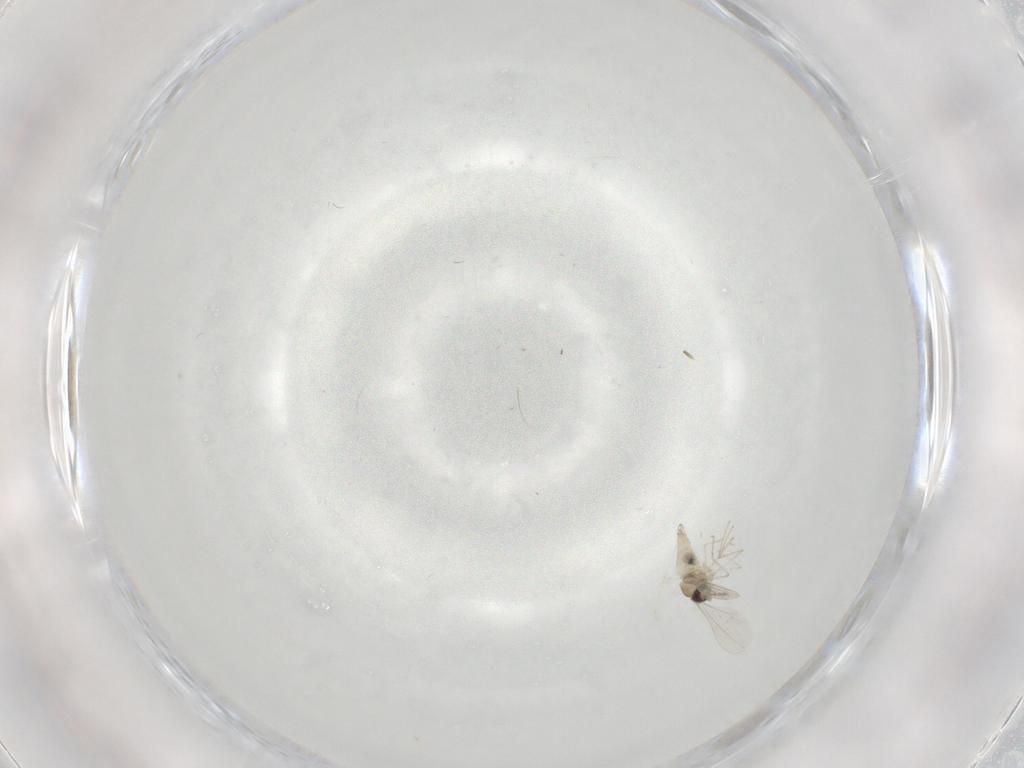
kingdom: Animalia
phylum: Arthropoda
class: Insecta
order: Diptera
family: Cecidomyiidae
